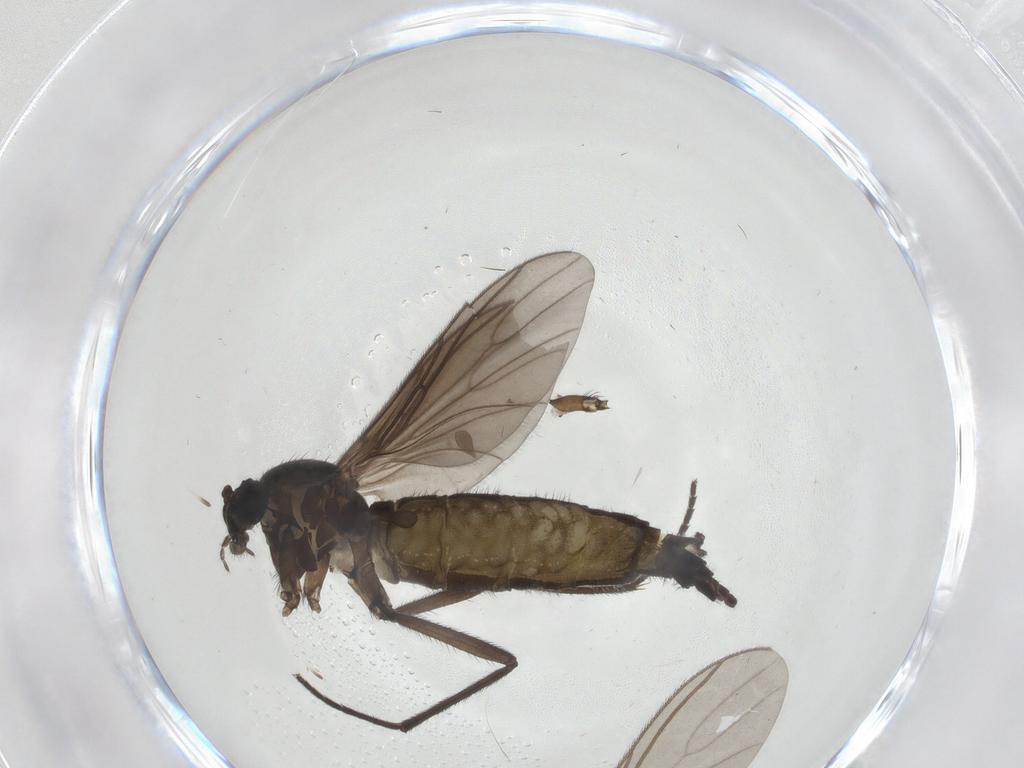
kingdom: Animalia
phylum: Arthropoda
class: Insecta
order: Diptera
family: Sciaridae
